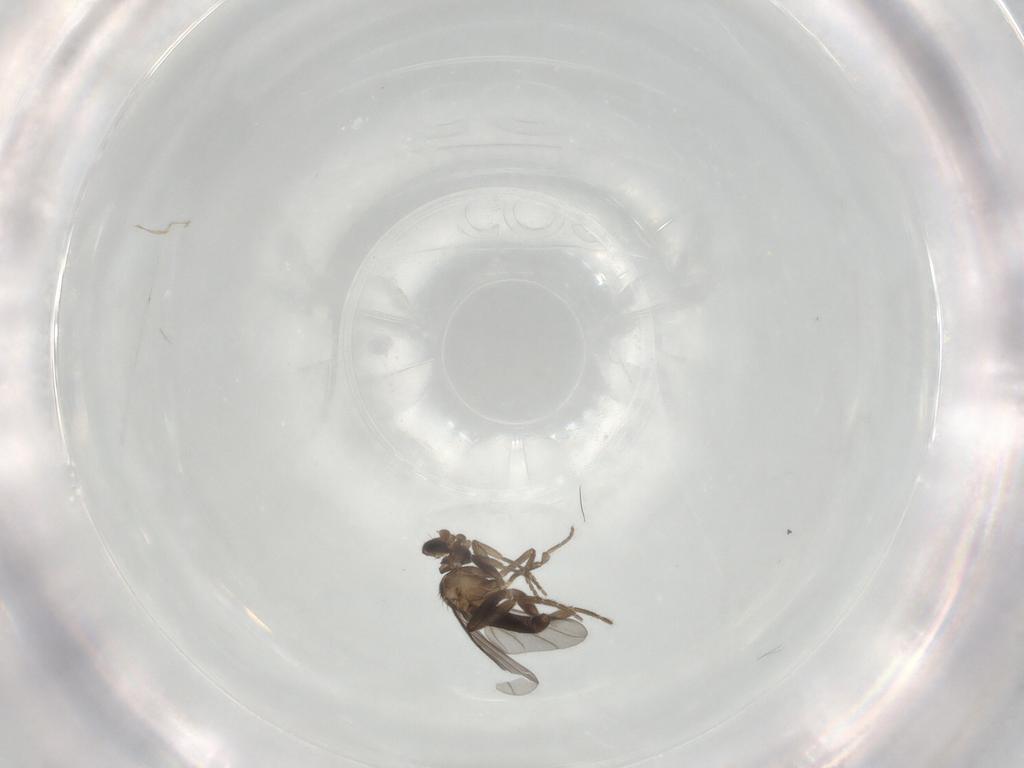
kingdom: Animalia
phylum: Arthropoda
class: Insecta
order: Diptera
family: Phoridae
